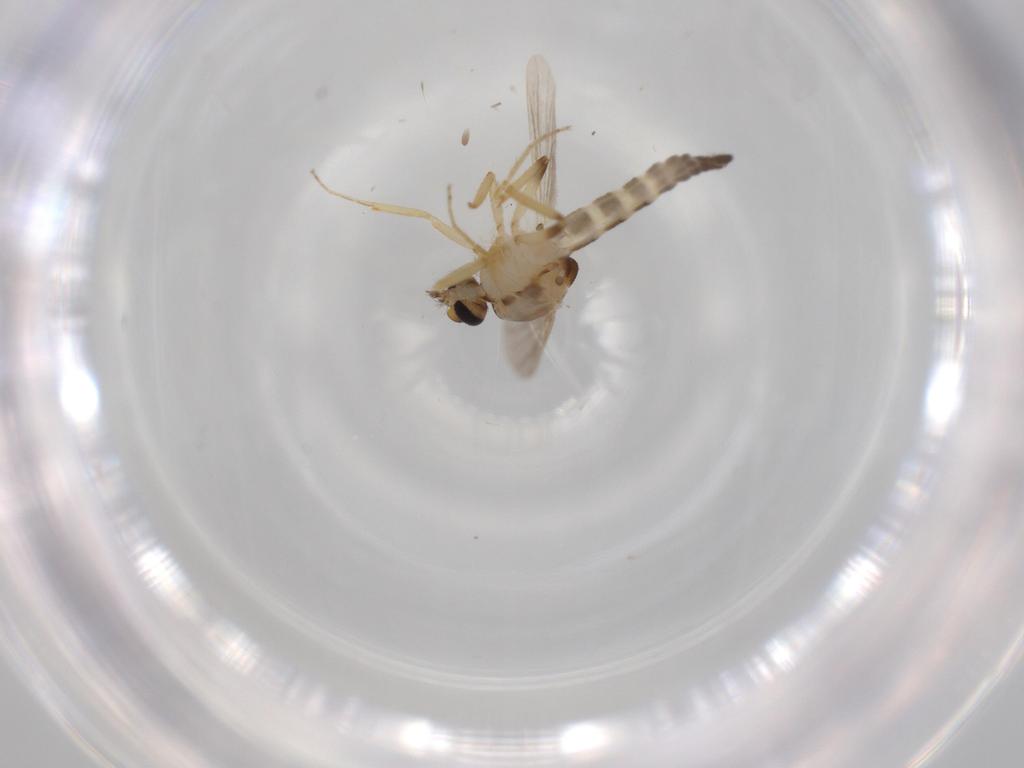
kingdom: Animalia
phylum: Arthropoda
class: Insecta
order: Diptera
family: Ceratopogonidae
